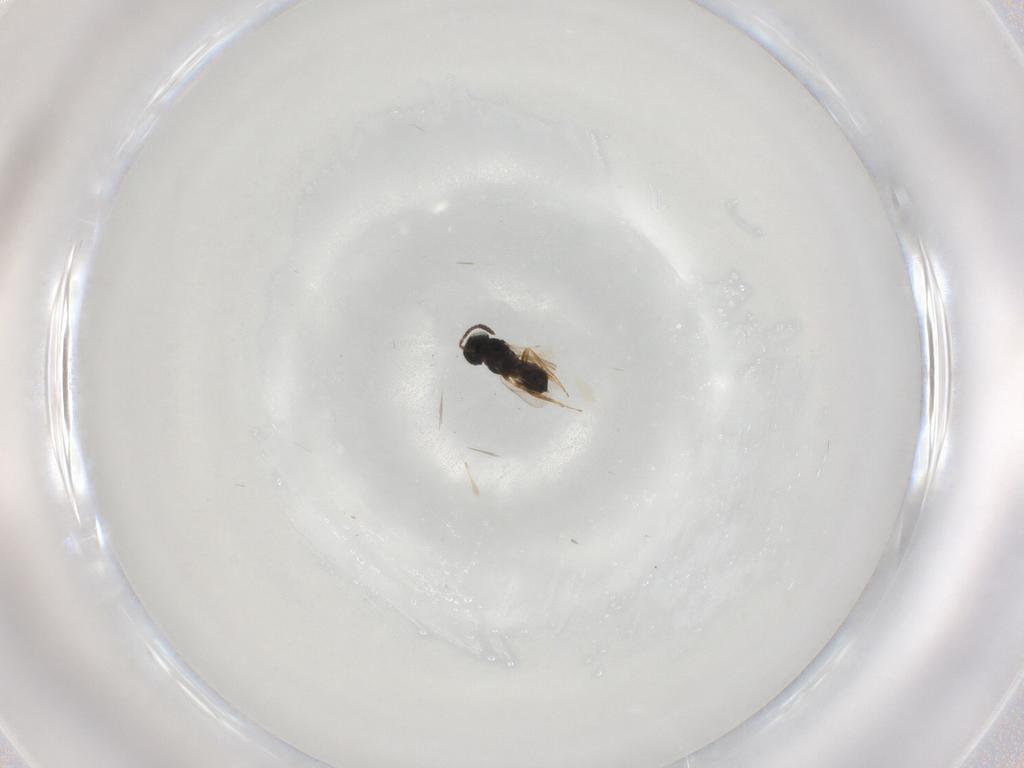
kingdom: Animalia
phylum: Arthropoda
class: Insecta
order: Hymenoptera
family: Scelionidae
